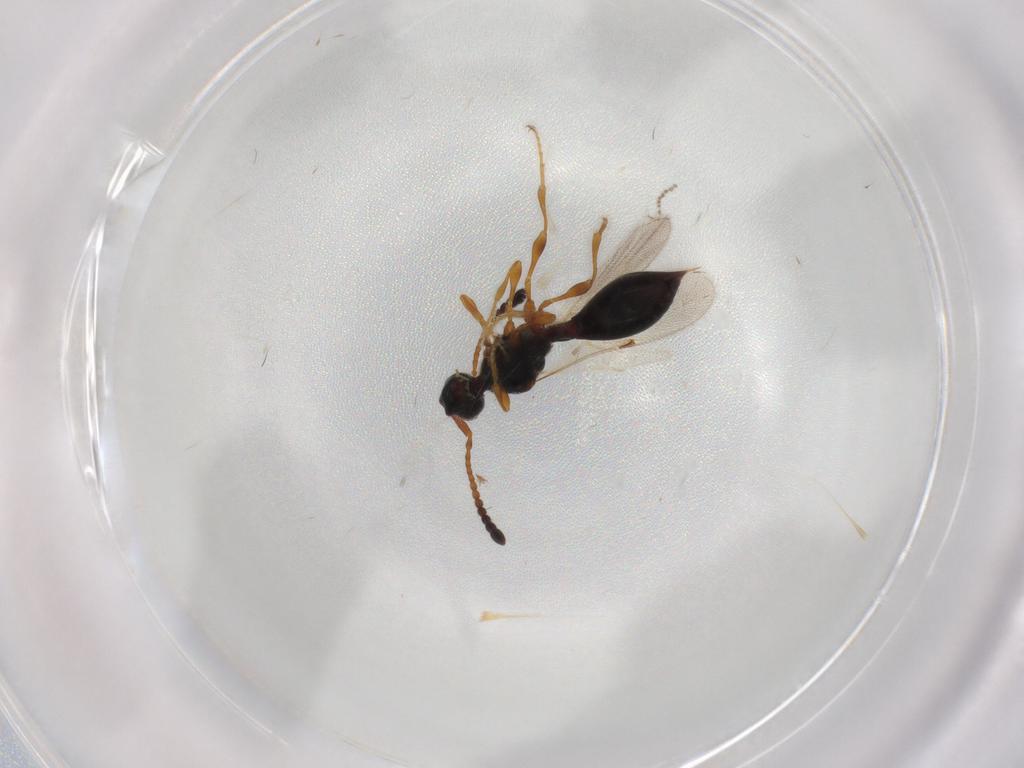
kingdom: Animalia
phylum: Arthropoda
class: Insecta
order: Hymenoptera
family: Diapriidae
